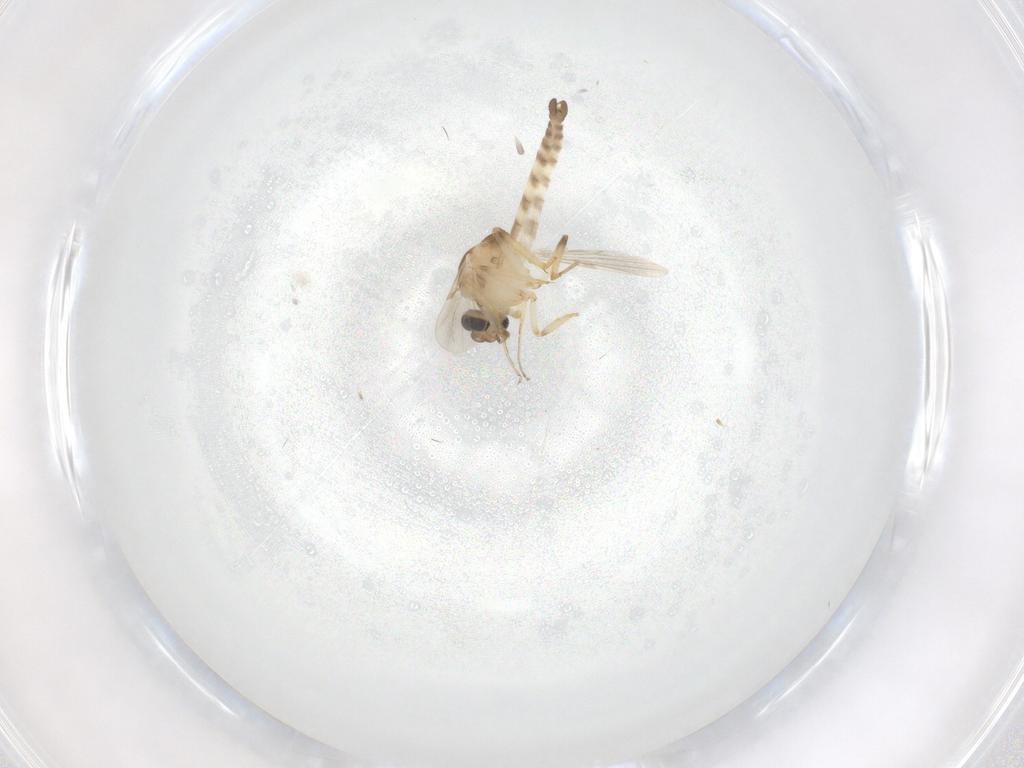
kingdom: Animalia
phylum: Arthropoda
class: Insecta
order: Diptera
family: Ceratopogonidae
